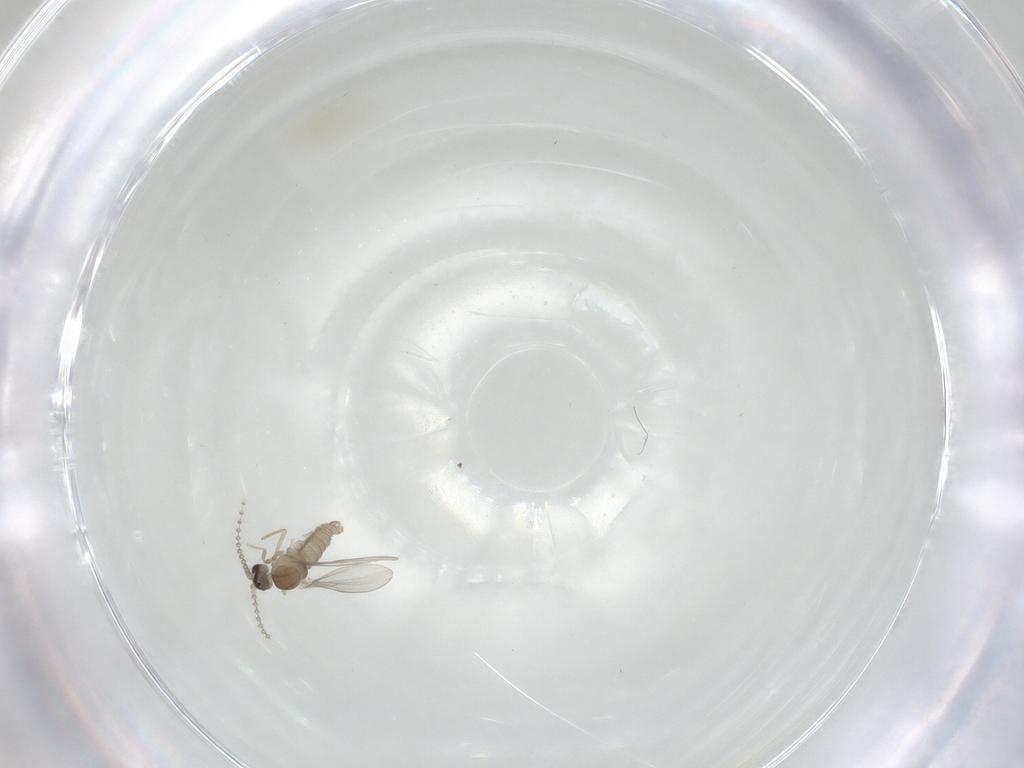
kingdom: Animalia
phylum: Arthropoda
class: Insecta
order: Diptera
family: Cecidomyiidae
